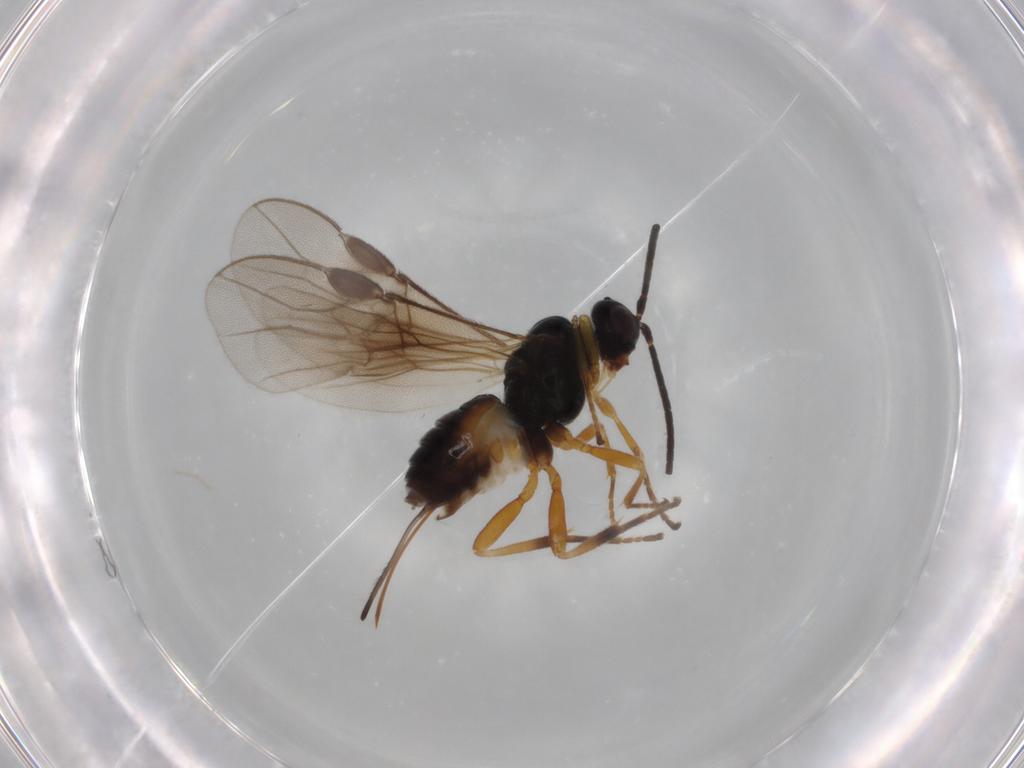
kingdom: Animalia
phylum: Arthropoda
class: Insecta
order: Hymenoptera
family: Braconidae
